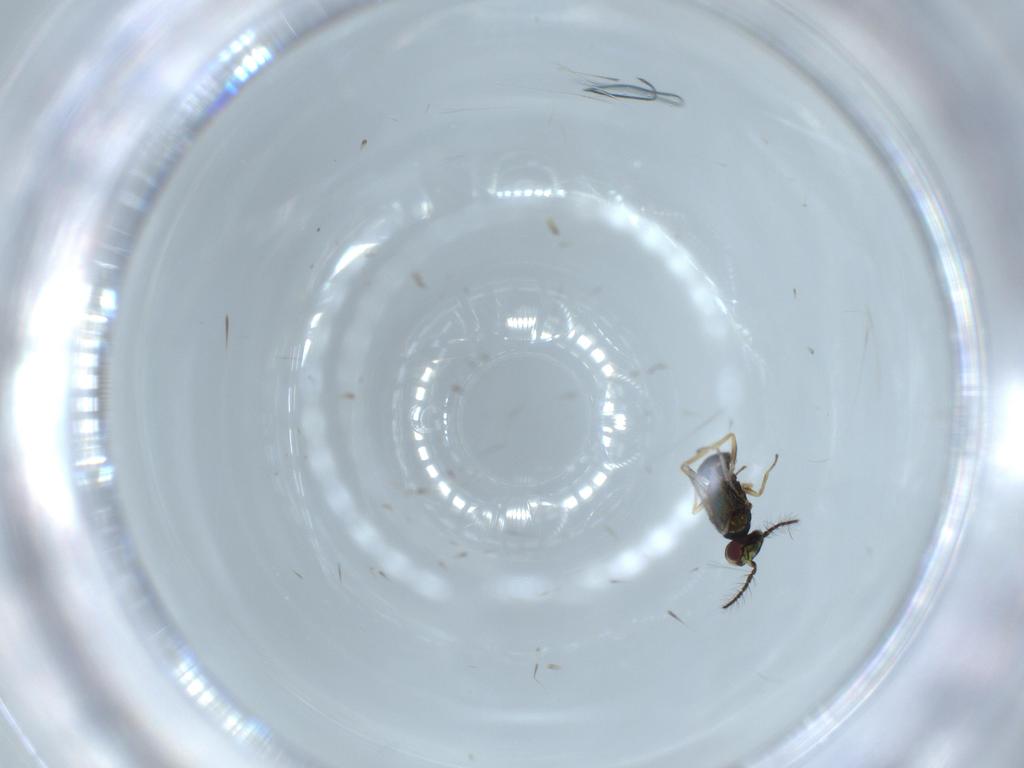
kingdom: Animalia
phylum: Arthropoda
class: Insecta
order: Hymenoptera
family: Eulophidae
